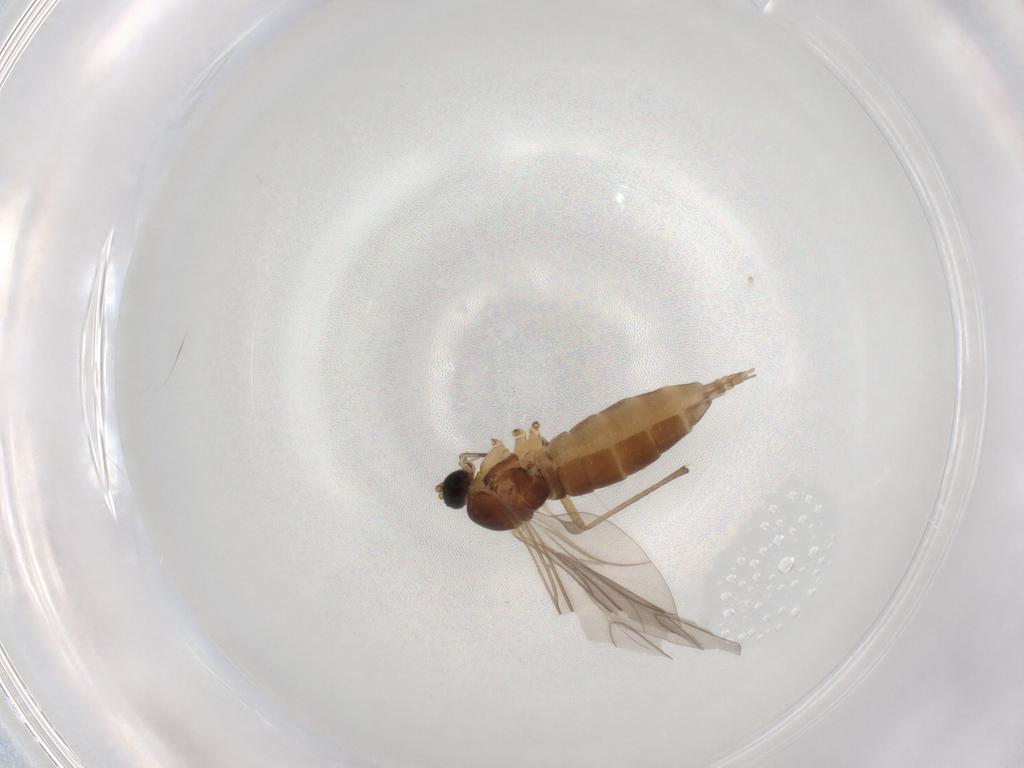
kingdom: Animalia
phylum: Arthropoda
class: Insecta
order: Diptera
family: Sciaridae
